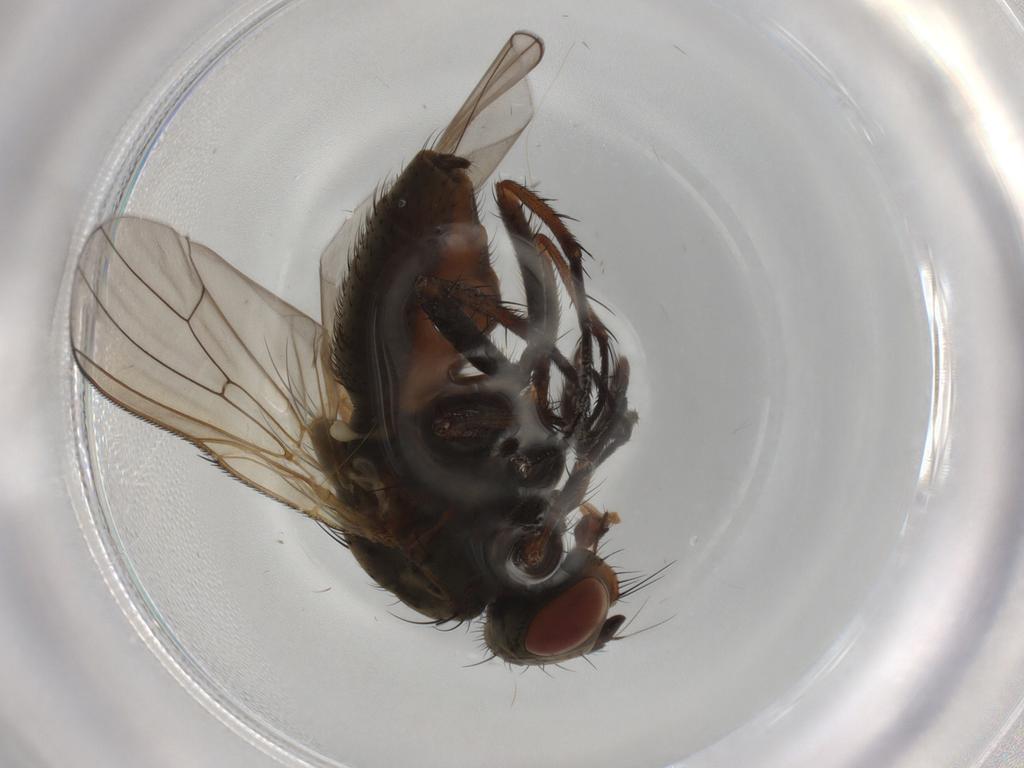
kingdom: Animalia
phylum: Arthropoda
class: Insecta
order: Diptera
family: Anthomyiidae
